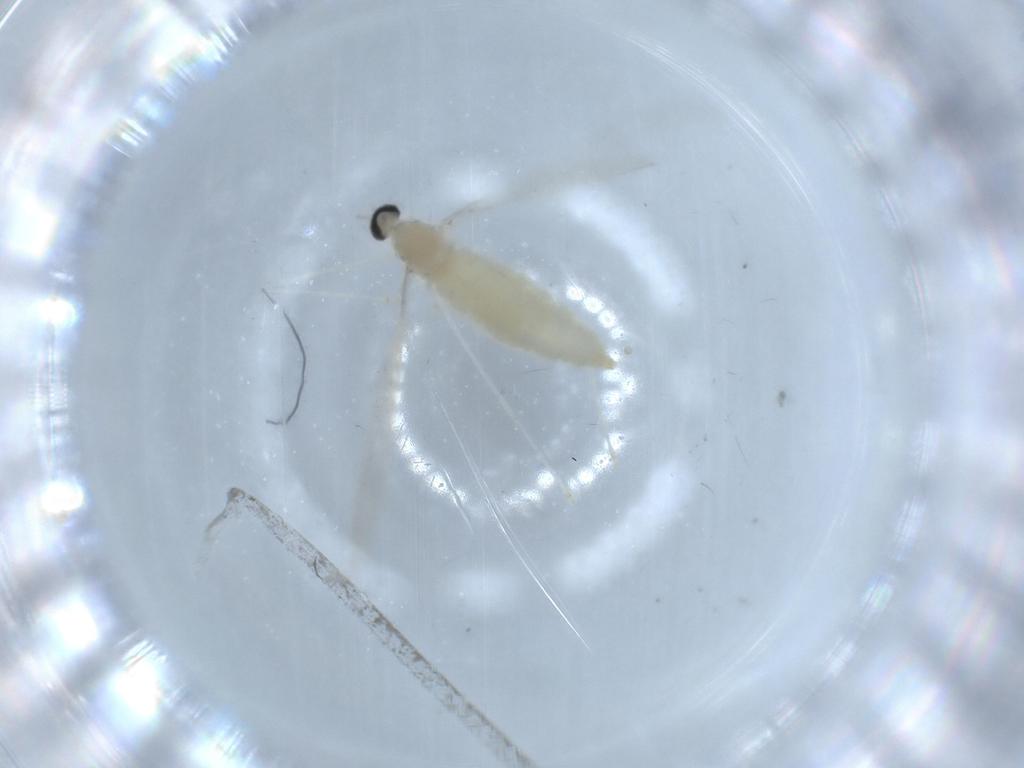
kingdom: Animalia
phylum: Arthropoda
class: Insecta
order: Diptera
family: Cecidomyiidae
